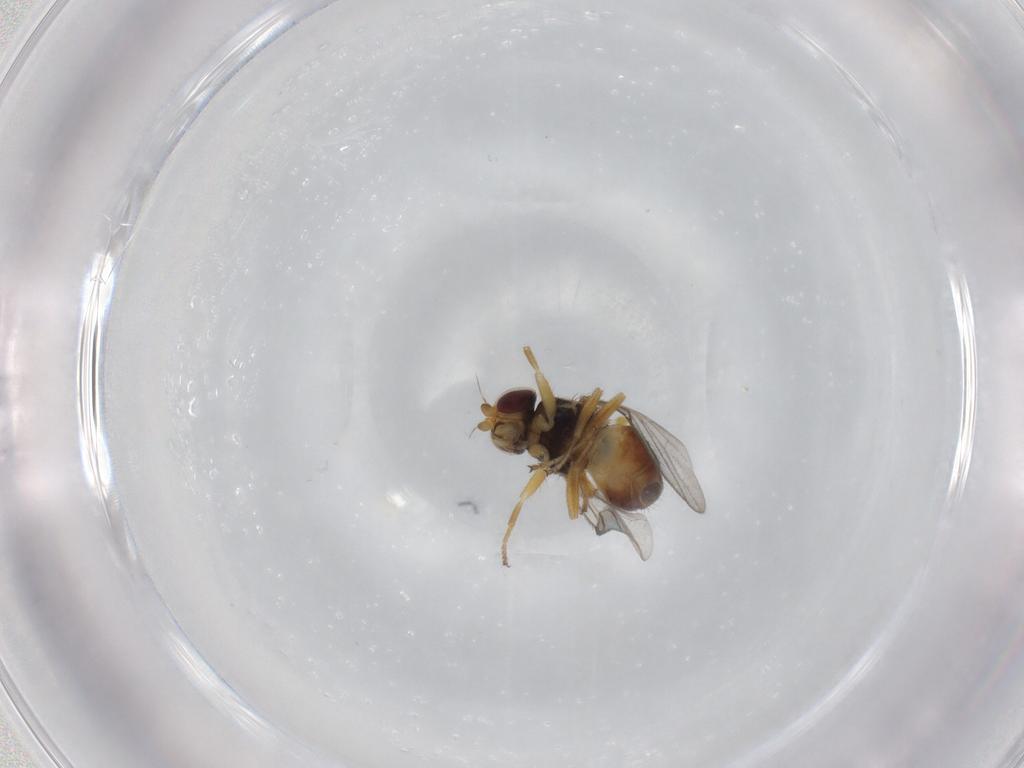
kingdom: Animalia
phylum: Arthropoda
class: Insecta
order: Diptera
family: Chloropidae
